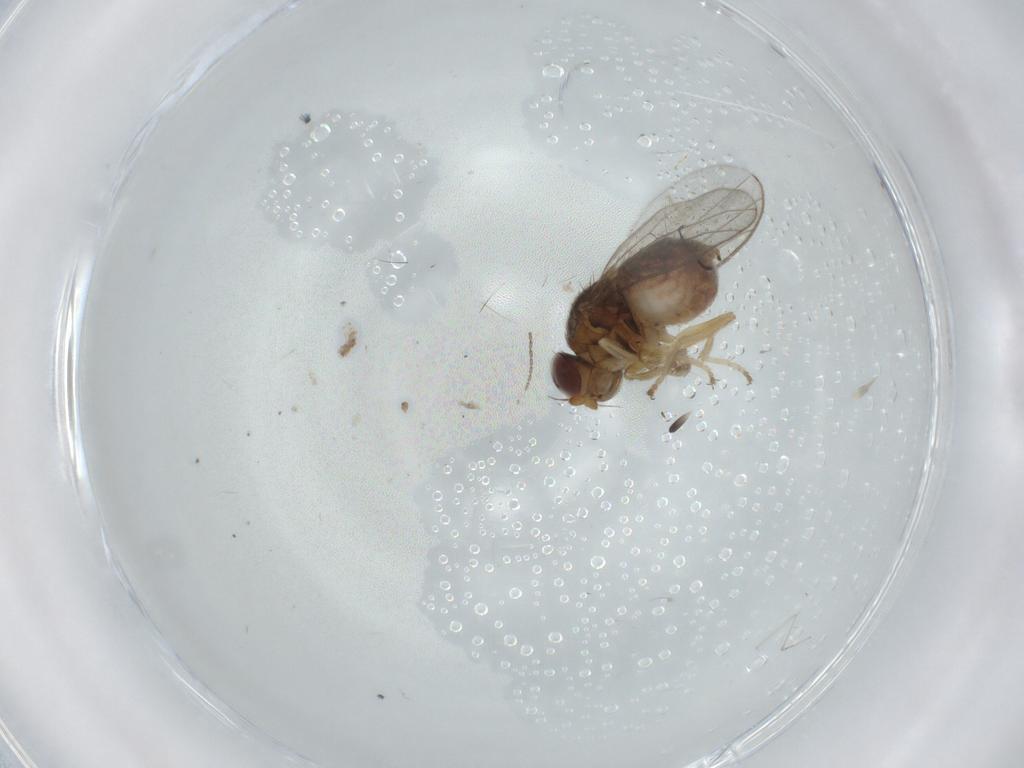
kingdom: Animalia
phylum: Arthropoda
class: Insecta
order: Diptera
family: Chloropidae
